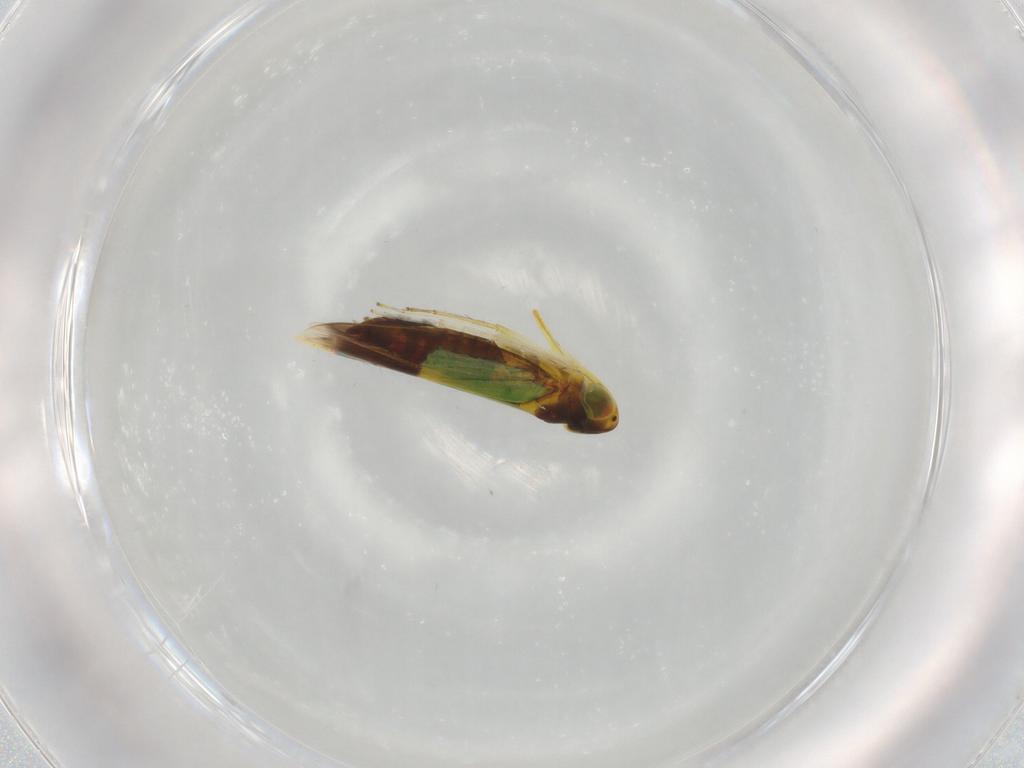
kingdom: Animalia
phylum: Arthropoda
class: Insecta
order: Hemiptera
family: Cicadellidae
